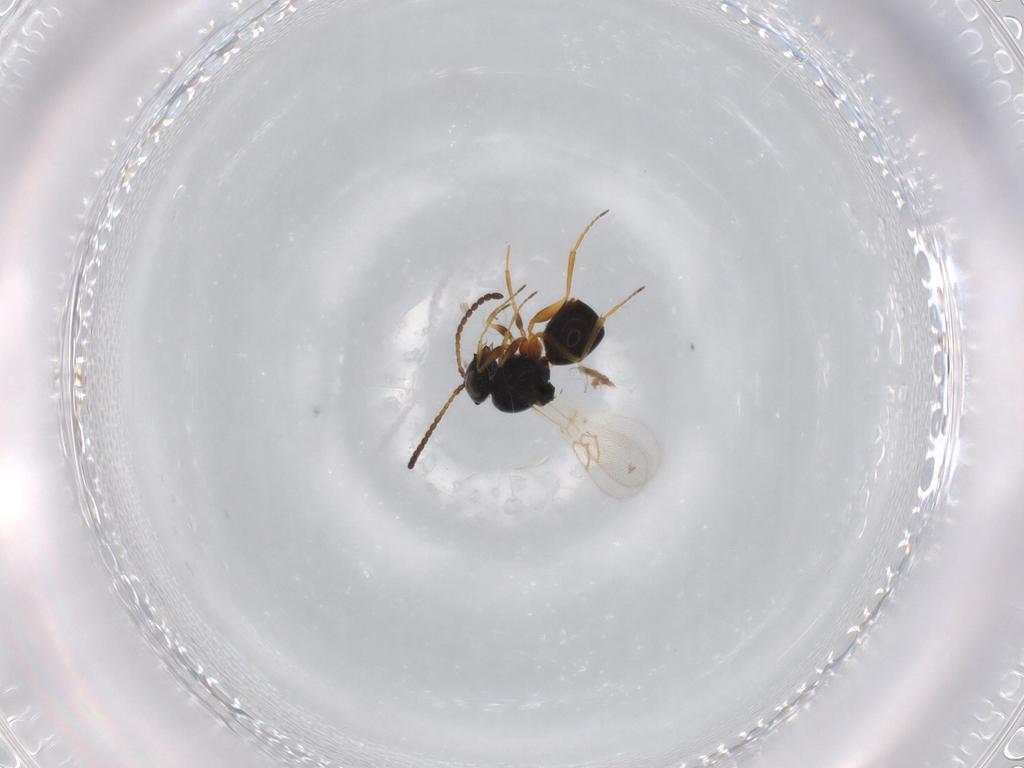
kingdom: Animalia
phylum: Arthropoda
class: Insecta
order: Hymenoptera
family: Figitidae
